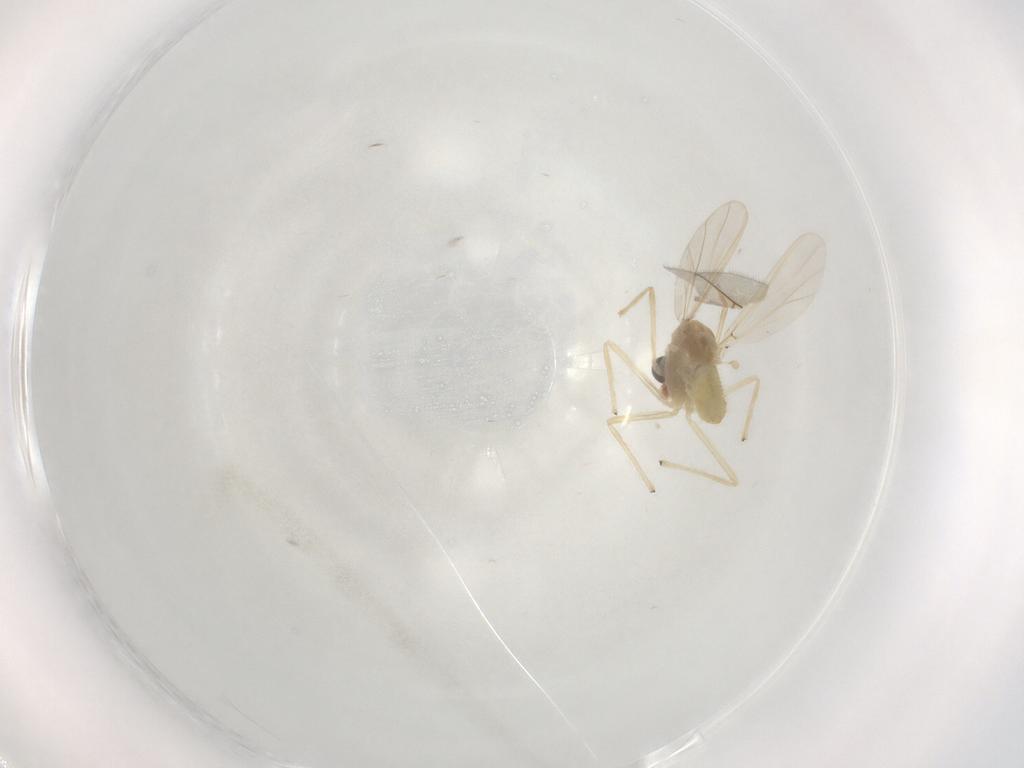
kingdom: Animalia
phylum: Arthropoda
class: Insecta
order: Diptera
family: Chironomidae
